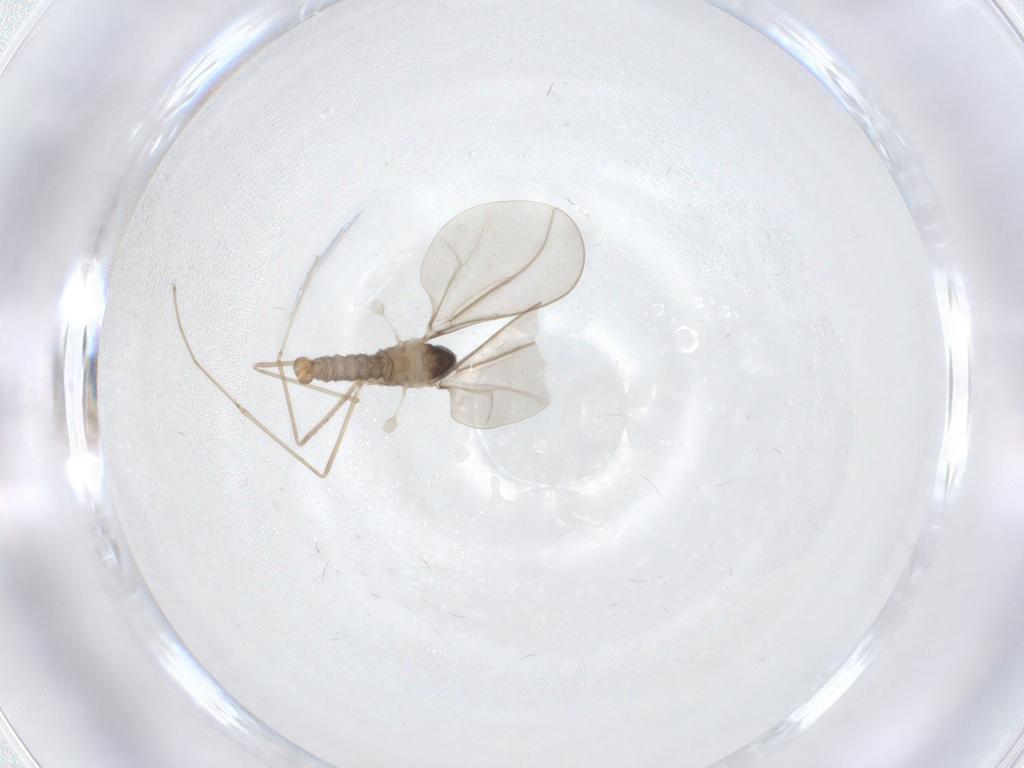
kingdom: Animalia
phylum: Arthropoda
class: Insecta
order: Diptera
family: Cecidomyiidae
